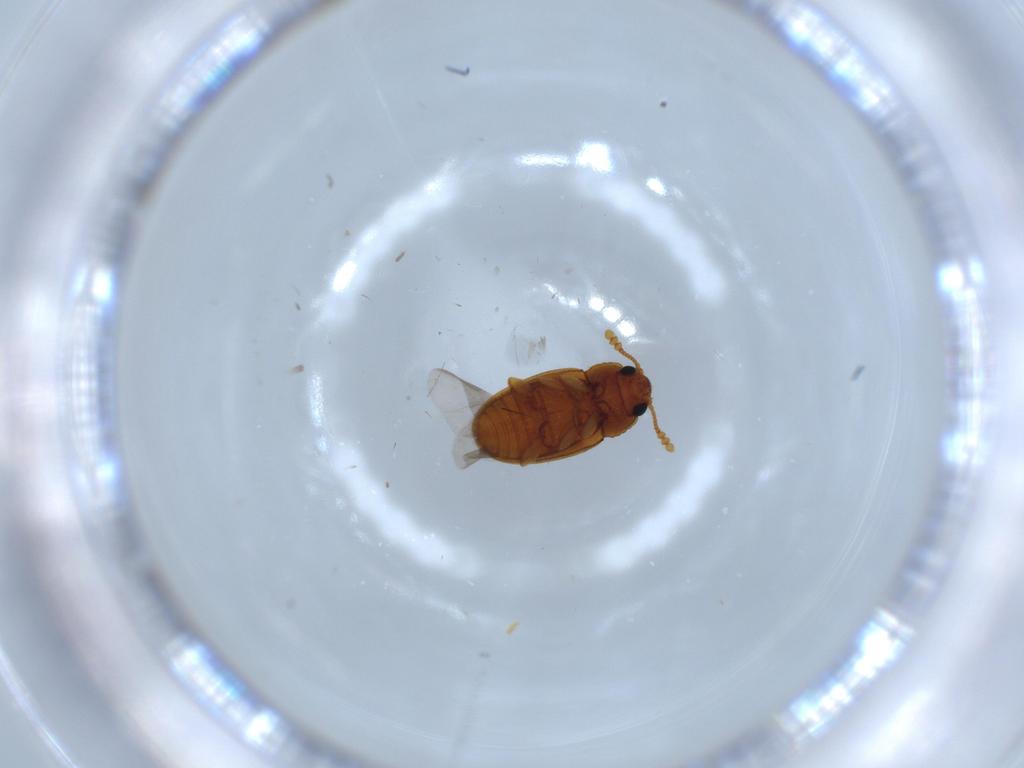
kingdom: Animalia
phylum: Arthropoda
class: Insecta
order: Coleoptera
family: Erotylidae
